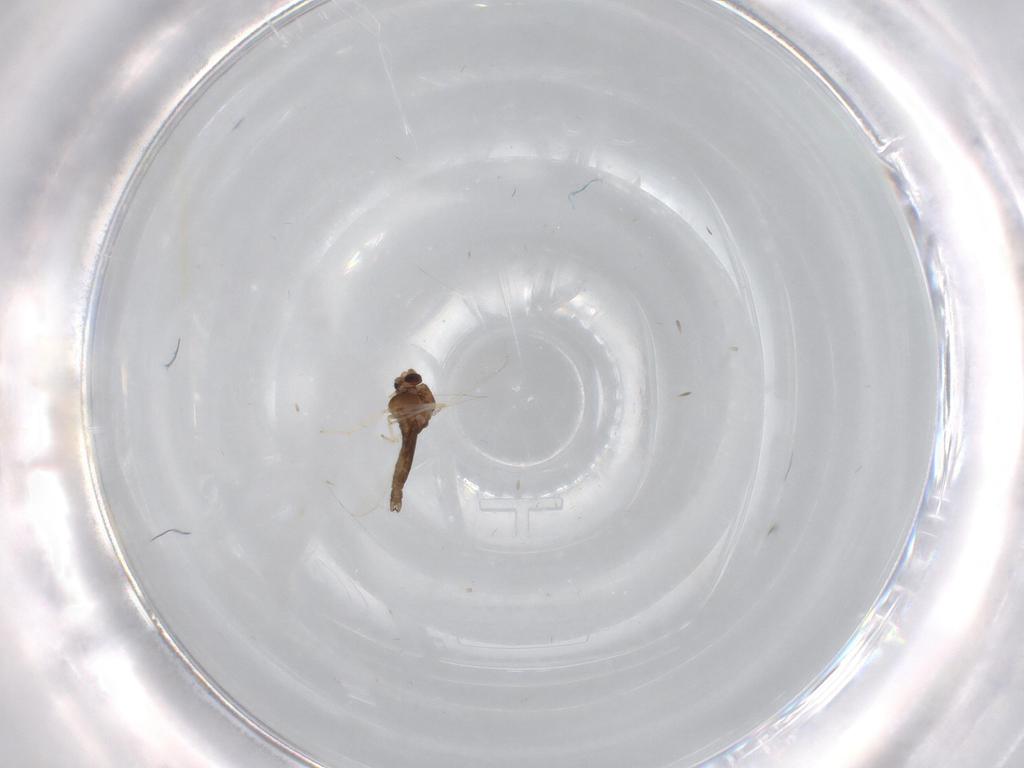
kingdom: Animalia
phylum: Arthropoda
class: Insecta
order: Diptera
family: Chironomidae
